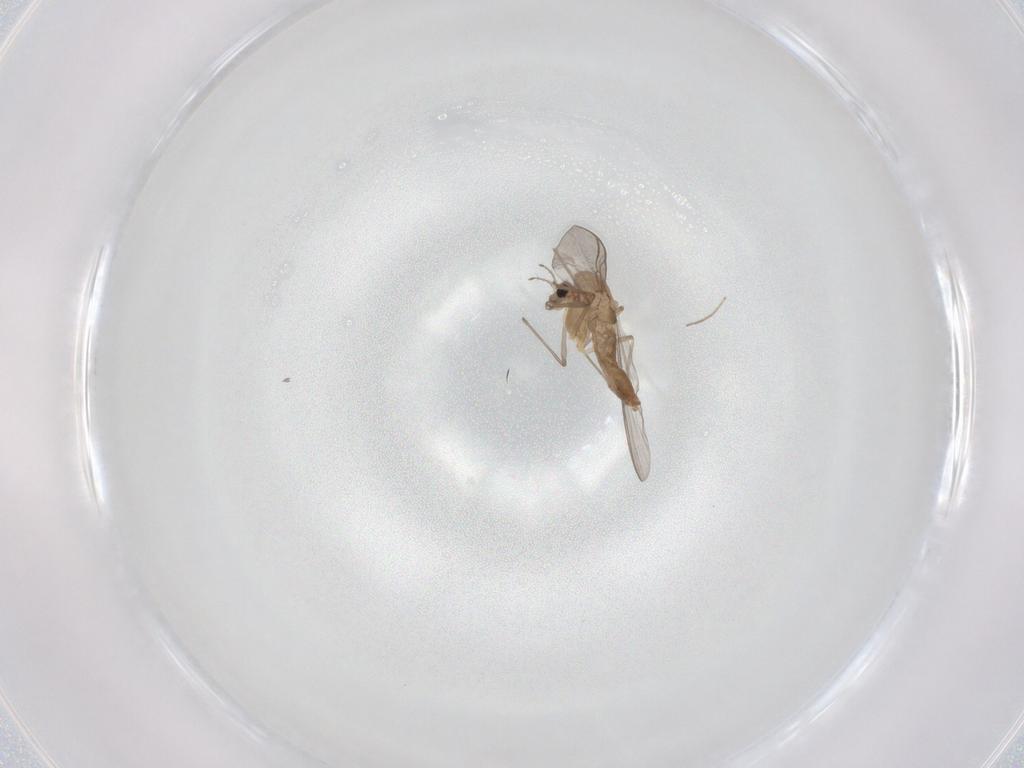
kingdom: Animalia
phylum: Arthropoda
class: Insecta
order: Diptera
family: Chironomidae
